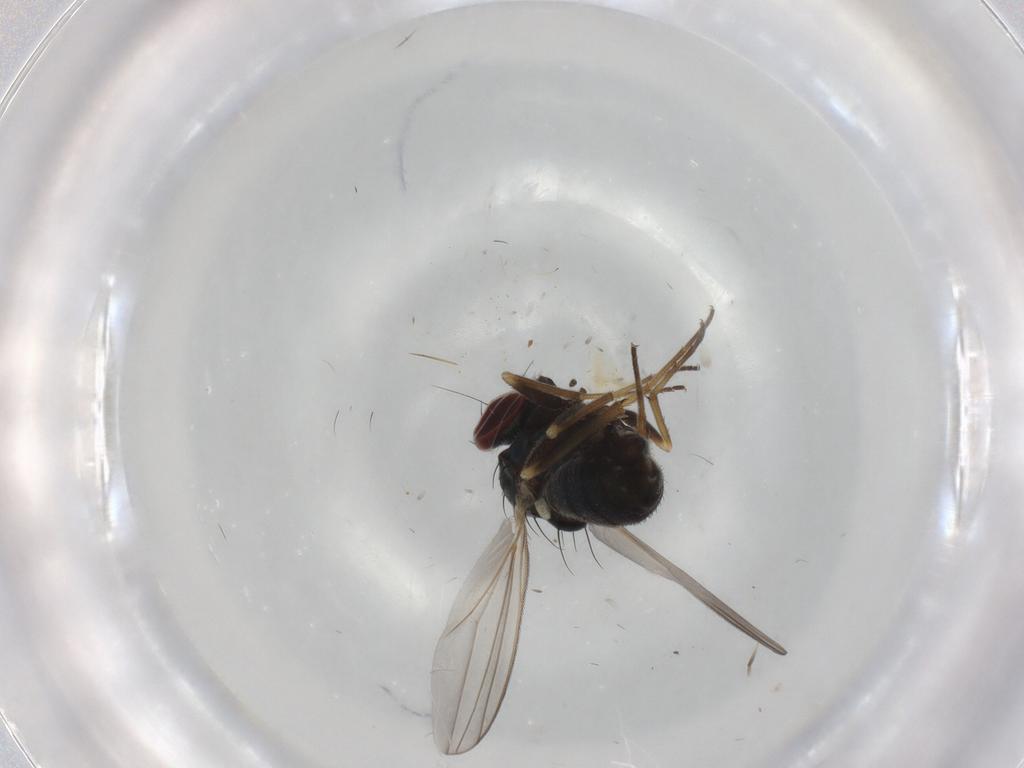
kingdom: Animalia
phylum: Arthropoda
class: Insecta
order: Diptera
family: Dolichopodidae
